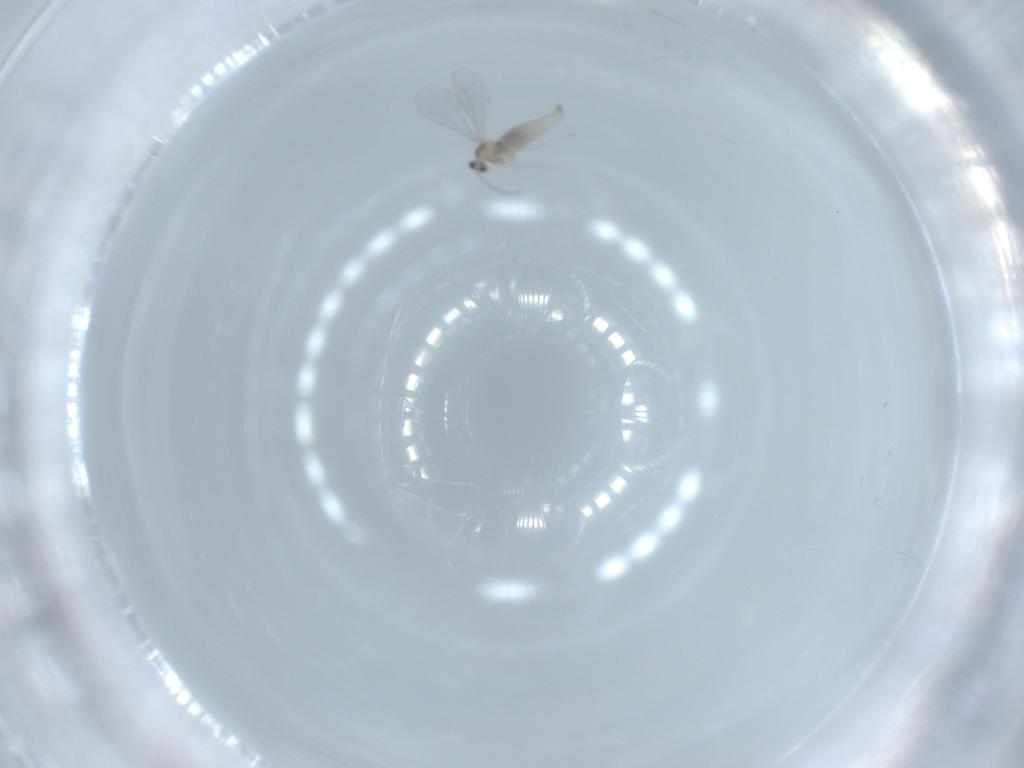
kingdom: Animalia
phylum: Arthropoda
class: Insecta
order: Diptera
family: Cecidomyiidae
